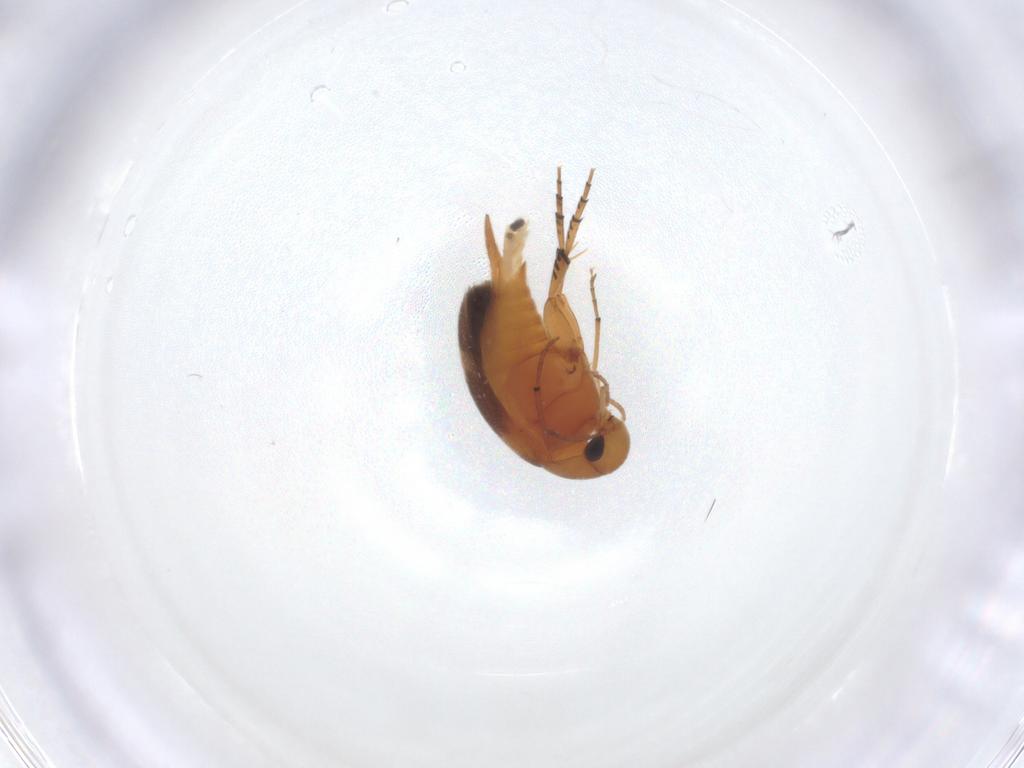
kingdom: Animalia
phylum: Arthropoda
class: Insecta
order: Coleoptera
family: Mordellidae
